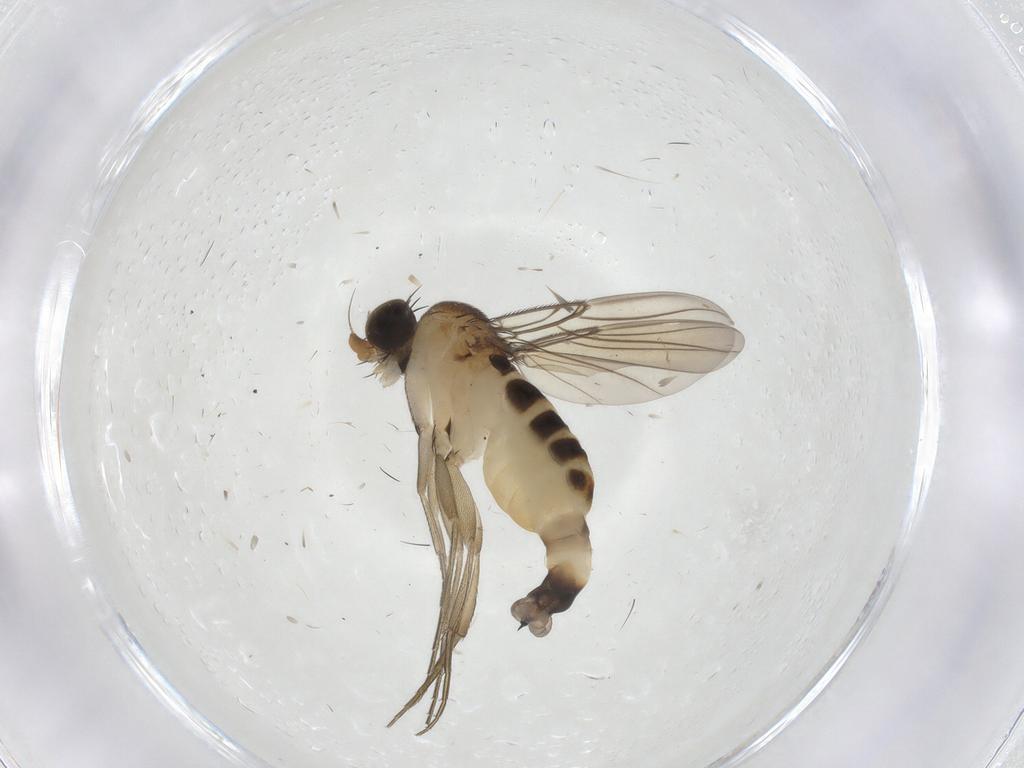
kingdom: Animalia
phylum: Arthropoda
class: Insecta
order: Diptera
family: Phoridae
